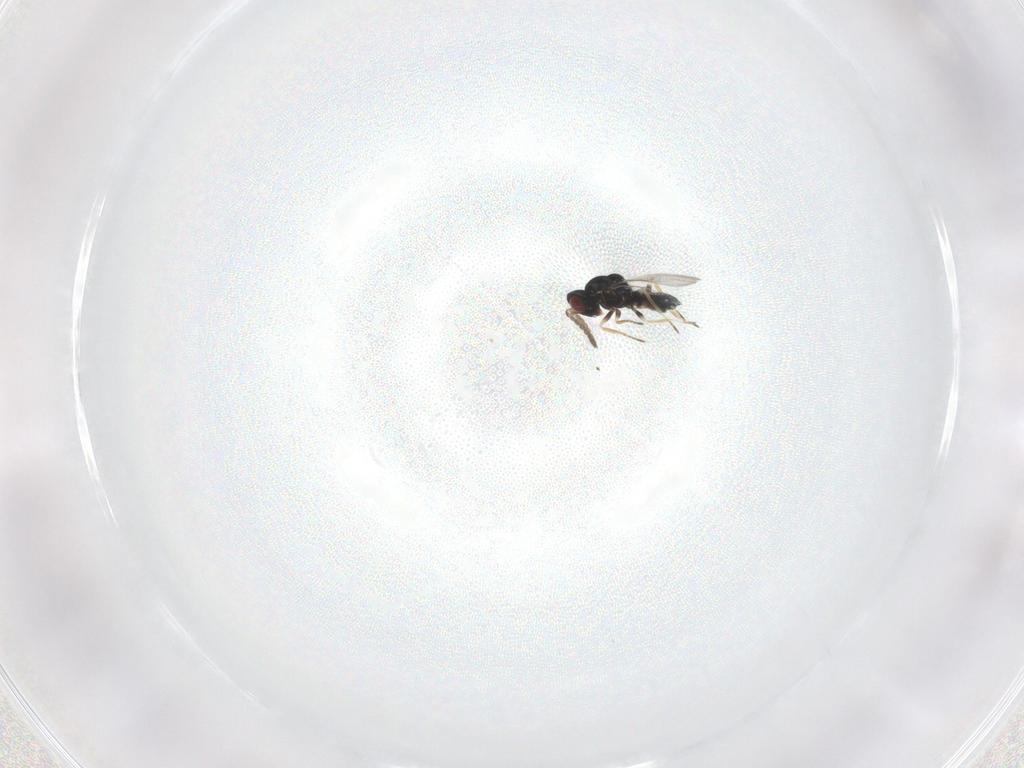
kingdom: Animalia
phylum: Arthropoda
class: Insecta
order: Hymenoptera
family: Eulophidae
